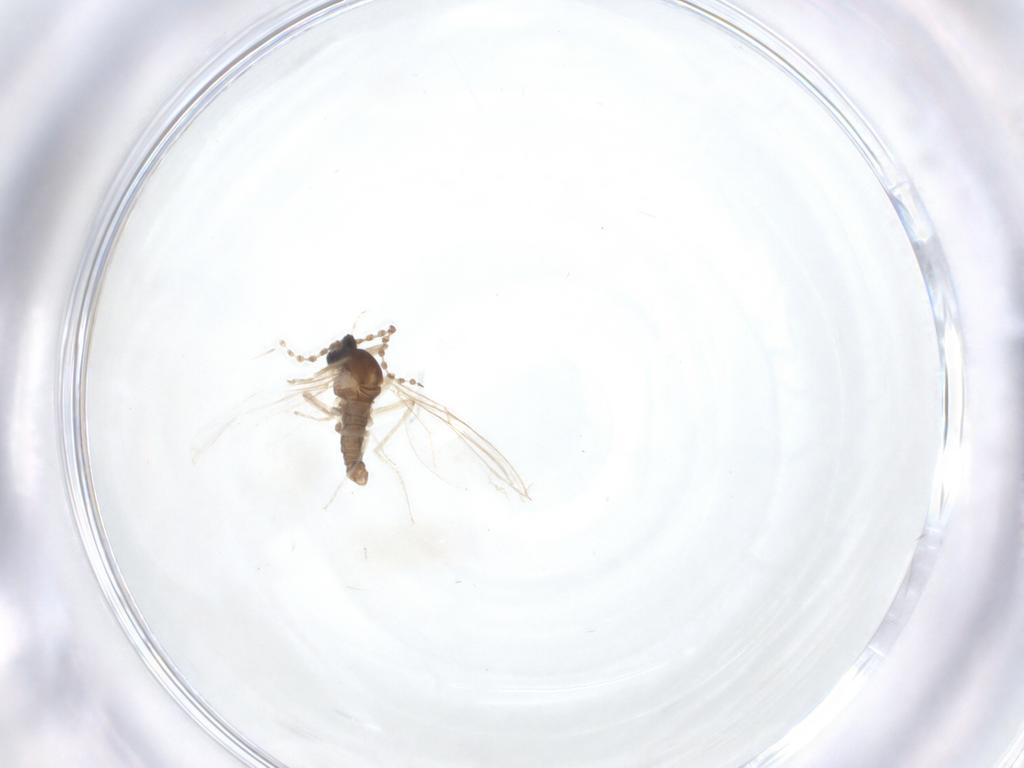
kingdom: Animalia
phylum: Arthropoda
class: Insecta
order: Diptera
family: Cecidomyiidae
